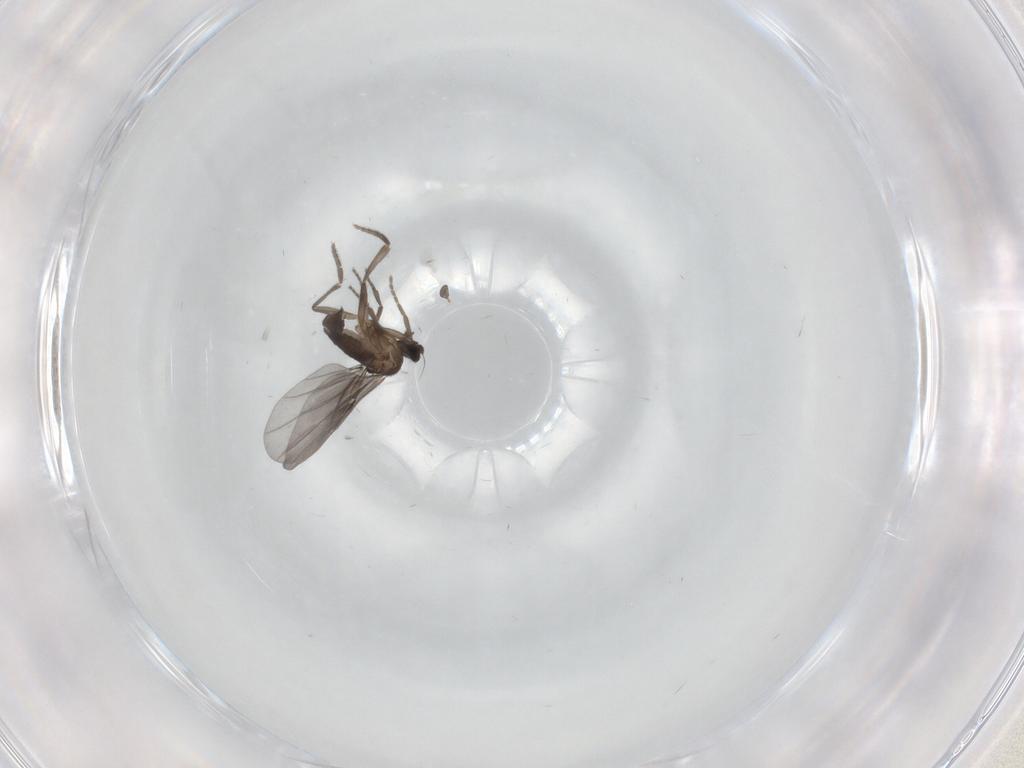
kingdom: Animalia
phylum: Arthropoda
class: Insecta
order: Diptera
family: Phoridae
